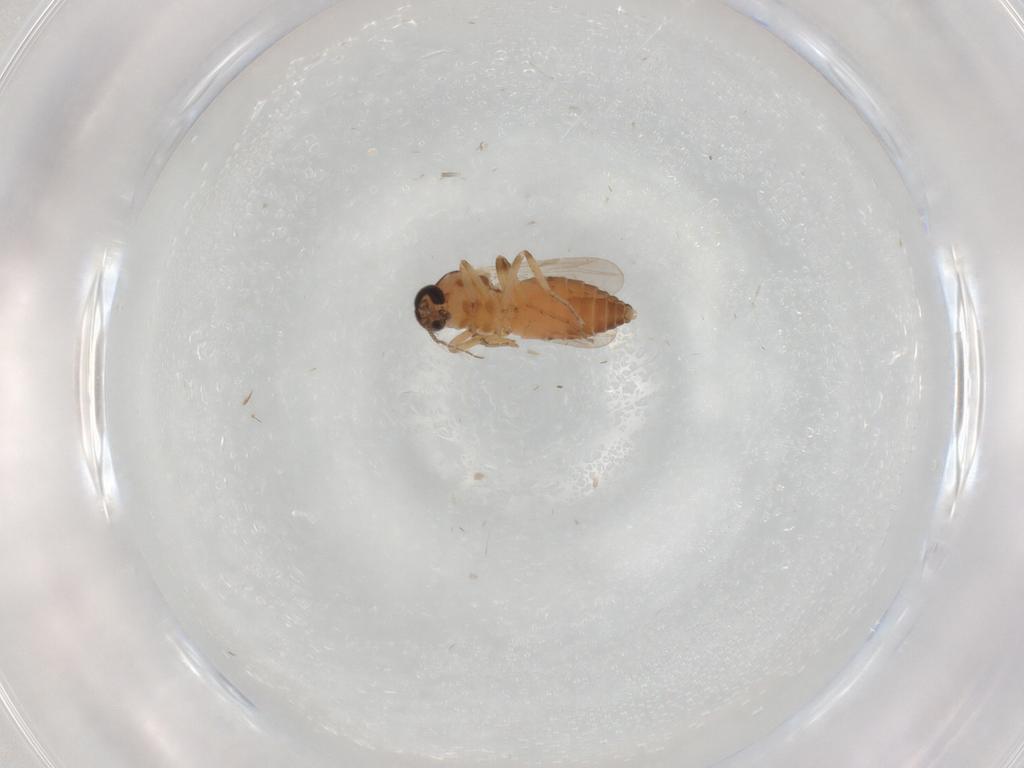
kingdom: Animalia
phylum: Arthropoda
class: Insecta
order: Diptera
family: Ceratopogonidae
